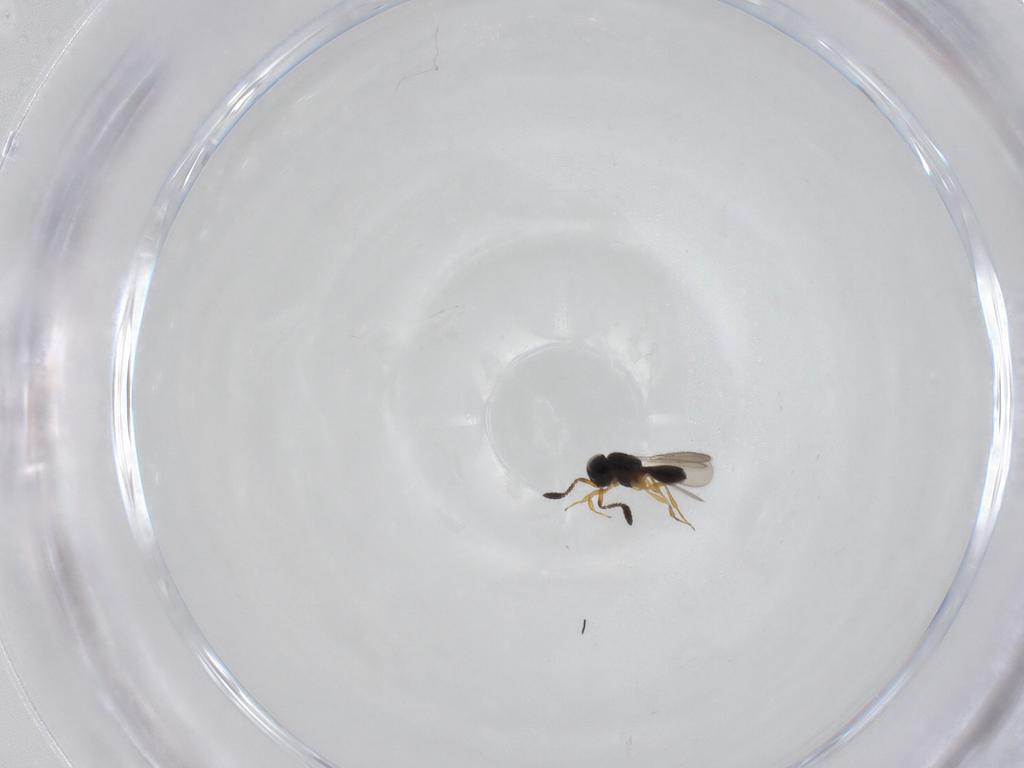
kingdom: Animalia
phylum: Arthropoda
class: Insecta
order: Hymenoptera
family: Scelionidae
